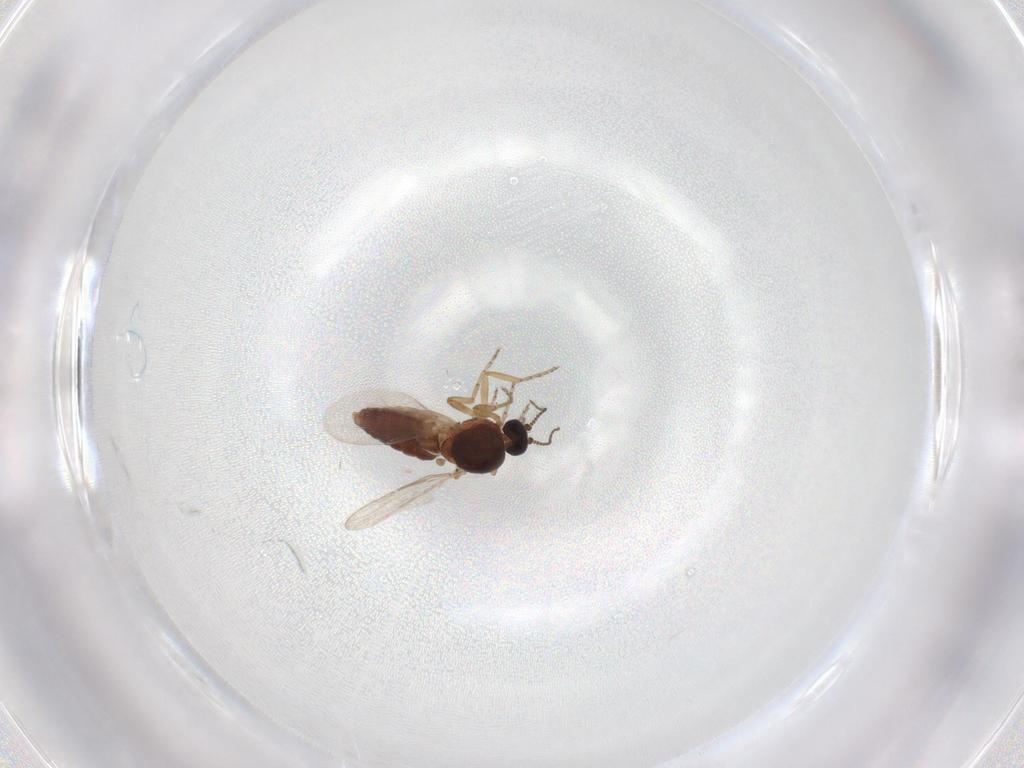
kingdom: Animalia
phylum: Arthropoda
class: Insecta
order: Diptera
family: Ceratopogonidae
